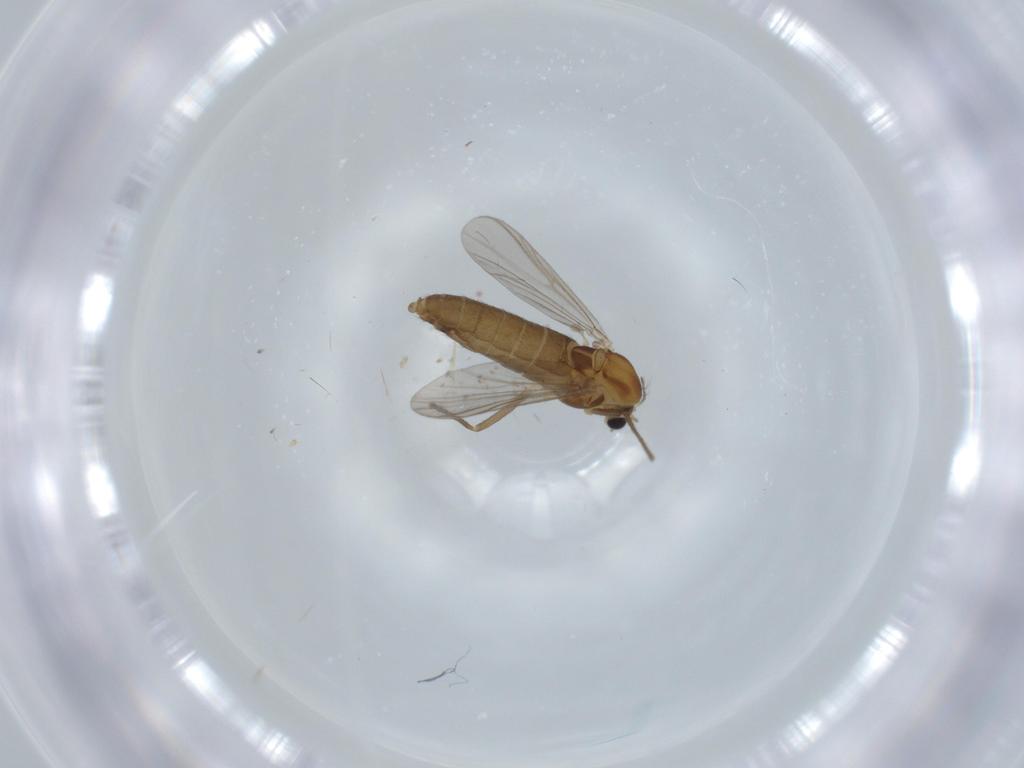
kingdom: Animalia
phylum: Arthropoda
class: Insecta
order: Diptera
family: Chironomidae
